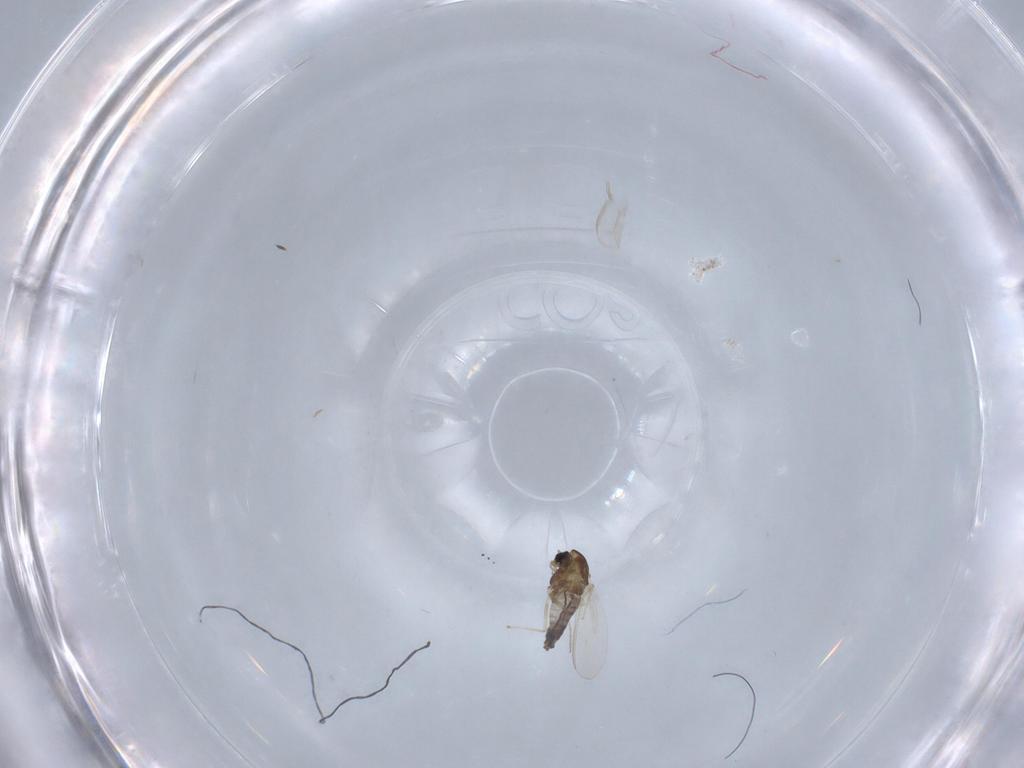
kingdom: Animalia
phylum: Arthropoda
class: Insecta
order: Diptera
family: Chironomidae
